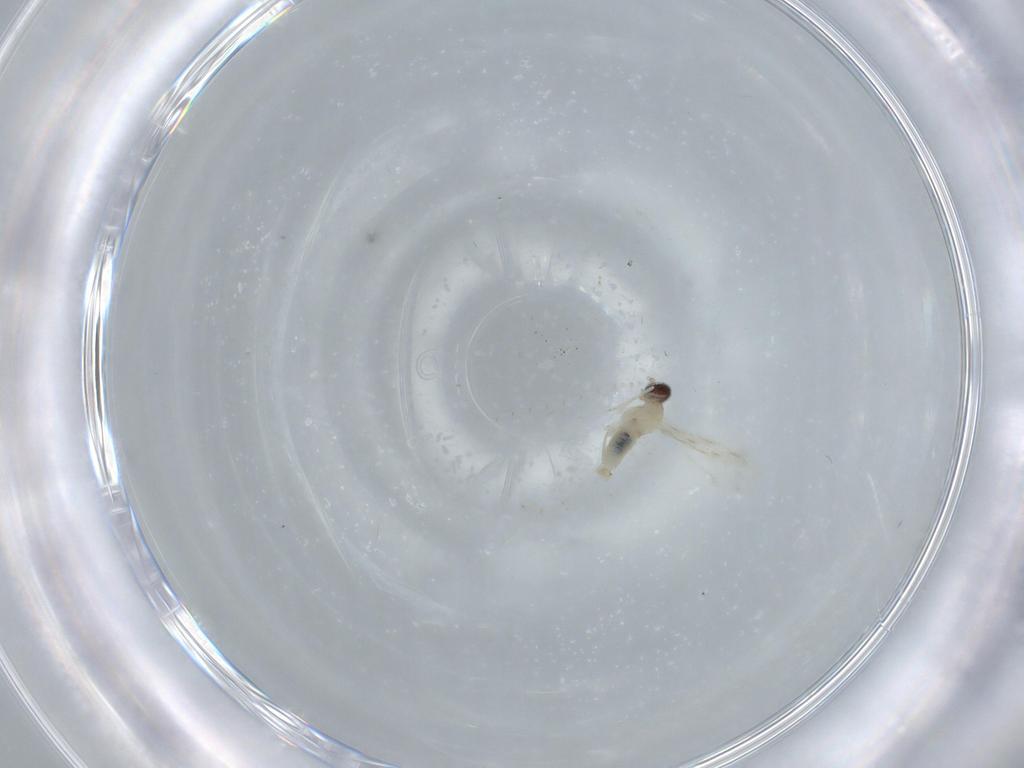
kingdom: Animalia
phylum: Arthropoda
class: Insecta
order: Diptera
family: Cecidomyiidae
